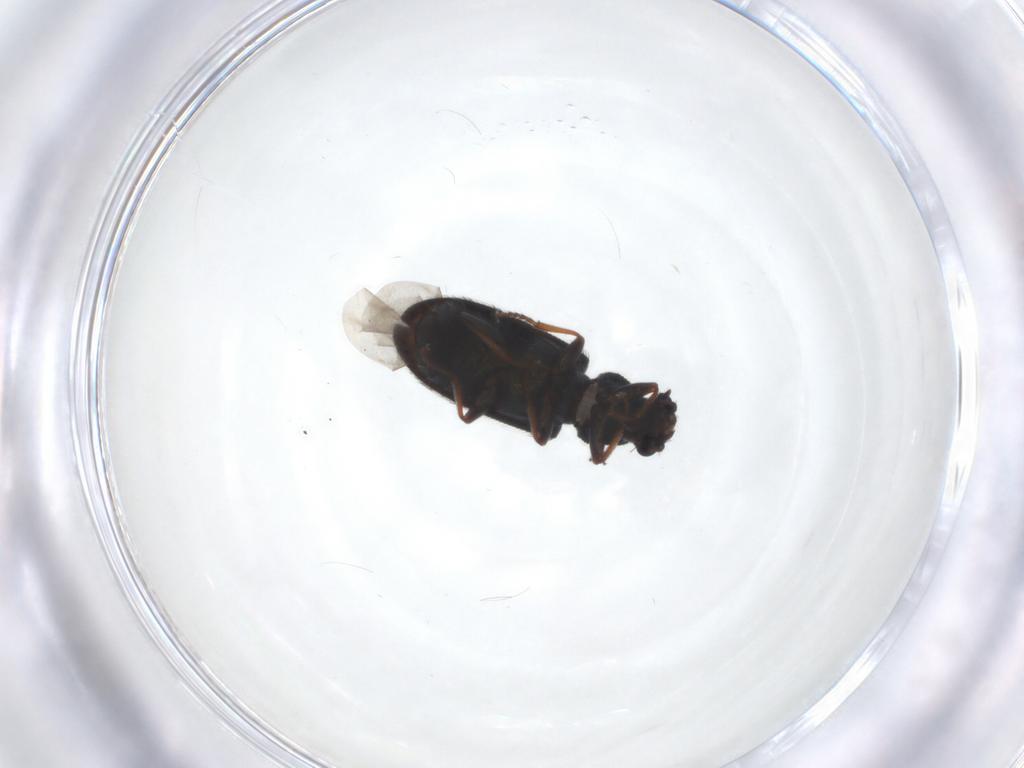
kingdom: Animalia
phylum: Arthropoda
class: Insecta
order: Coleoptera
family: Melyridae
